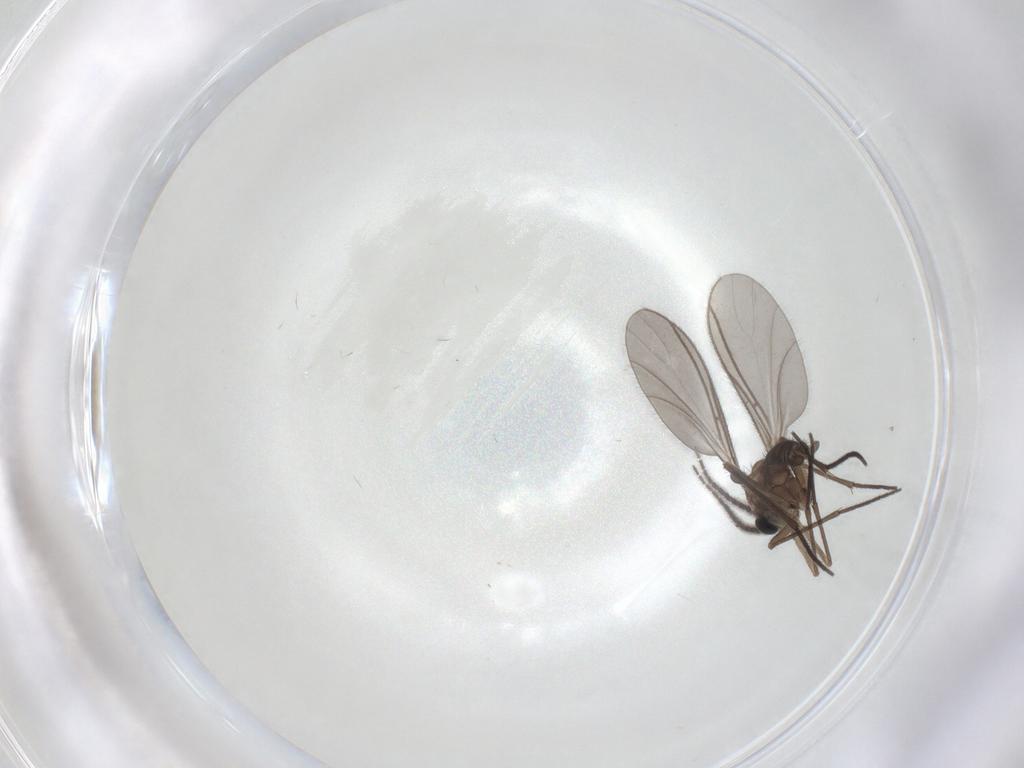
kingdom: Animalia
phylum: Arthropoda
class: Insecta
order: Diptera
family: Sciaridae
